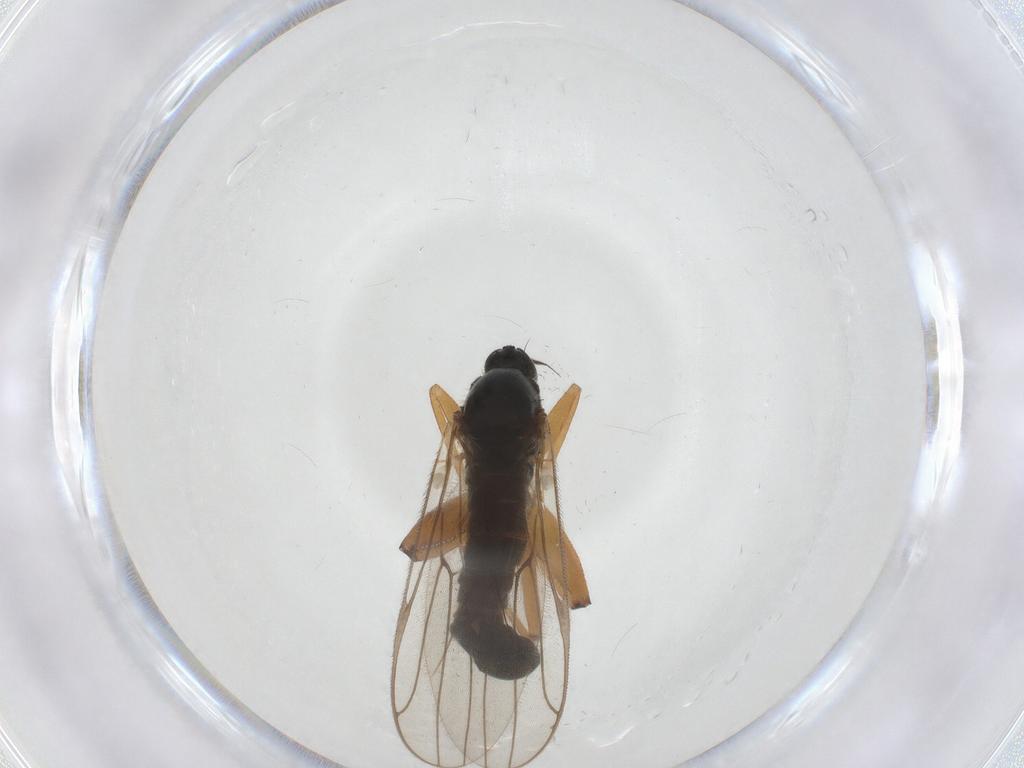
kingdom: Animalia
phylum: Arthropoda
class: Insecta
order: Diptera
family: Hybotidae
